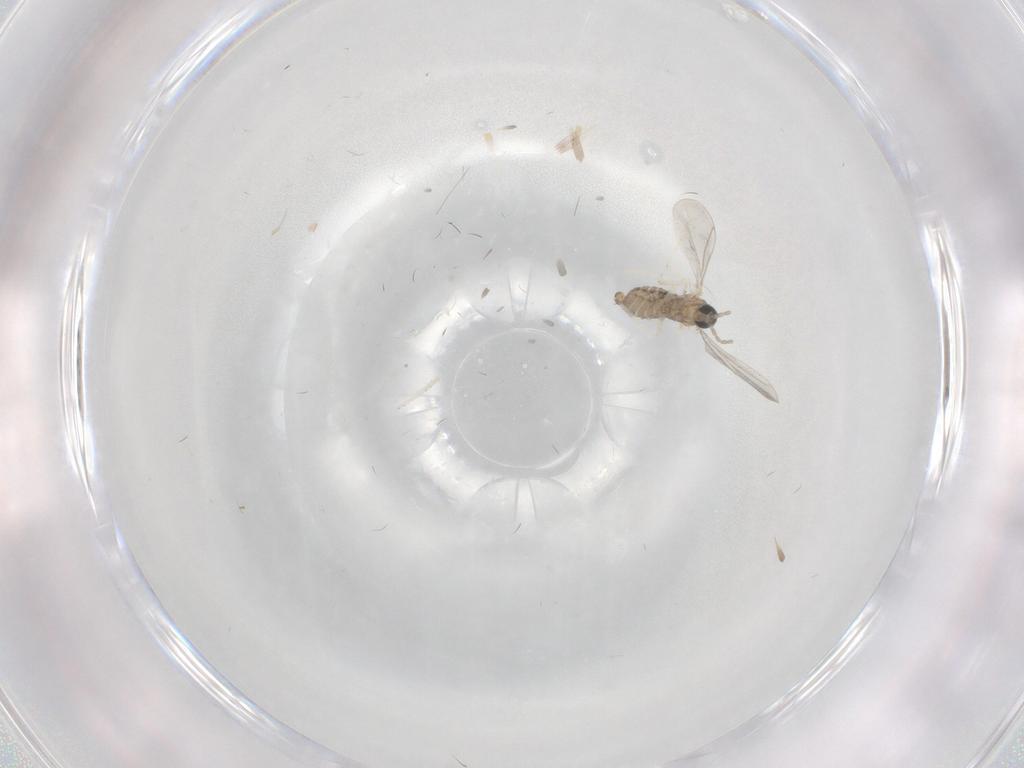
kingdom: Animalia
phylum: Arthropoda
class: Insecta
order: Diptera
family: Cecidomyiidae
